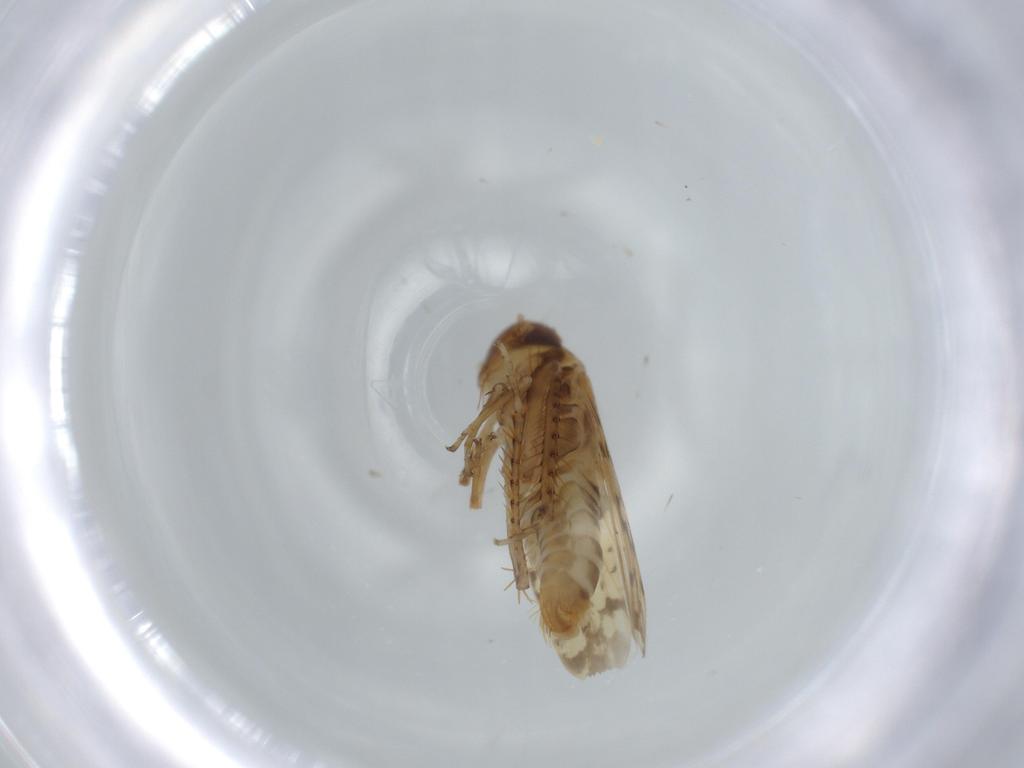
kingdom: Animalia
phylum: Arthropoda
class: Insecta
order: Hemiptera
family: Cicadellidae
